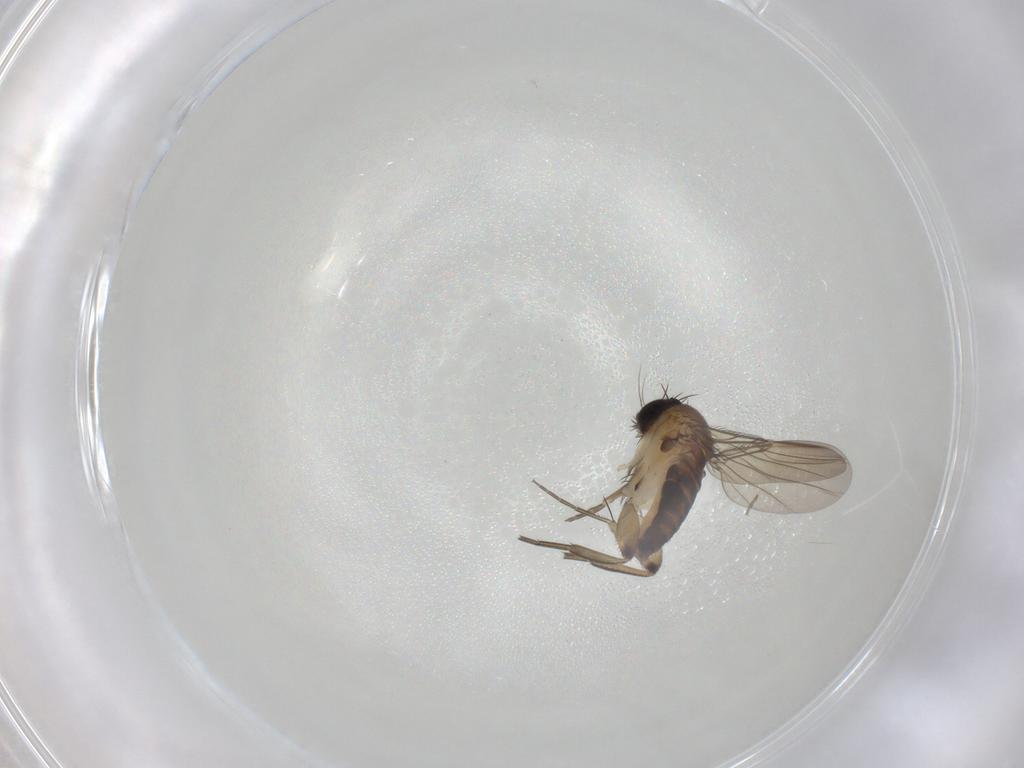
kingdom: Animalia
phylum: Arthropoda
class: Insecta
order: Diptera
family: Phoridae
